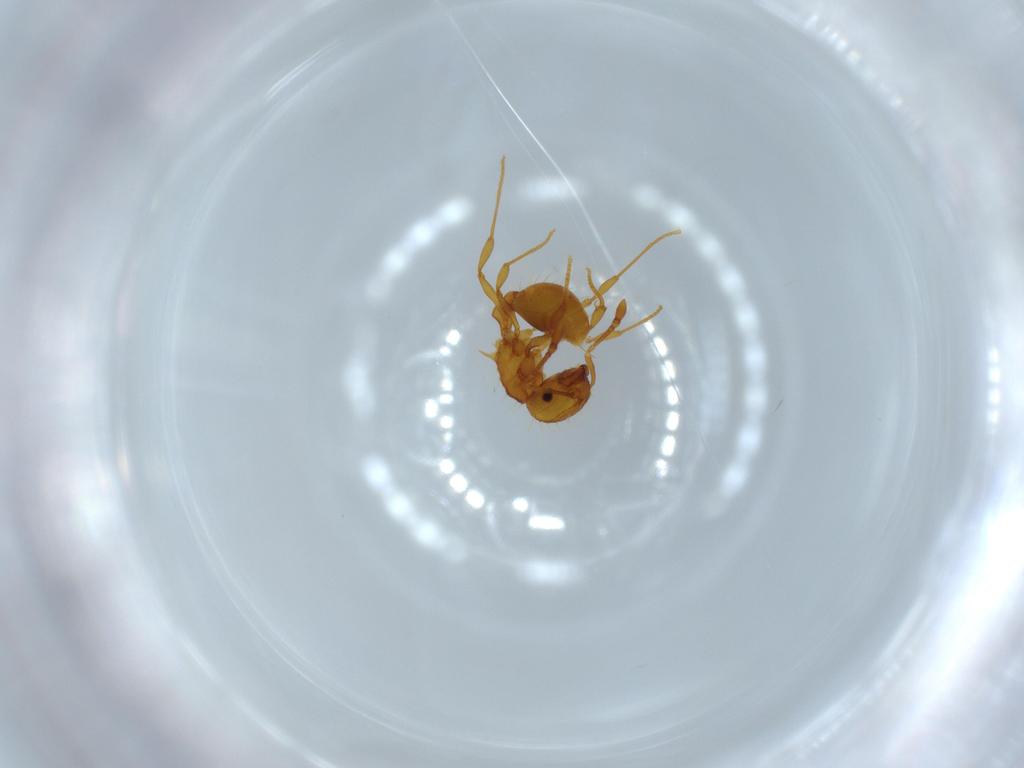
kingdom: Animalia
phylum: Arthropoda
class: Insecta
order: Hymenoptera
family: Formicidae
